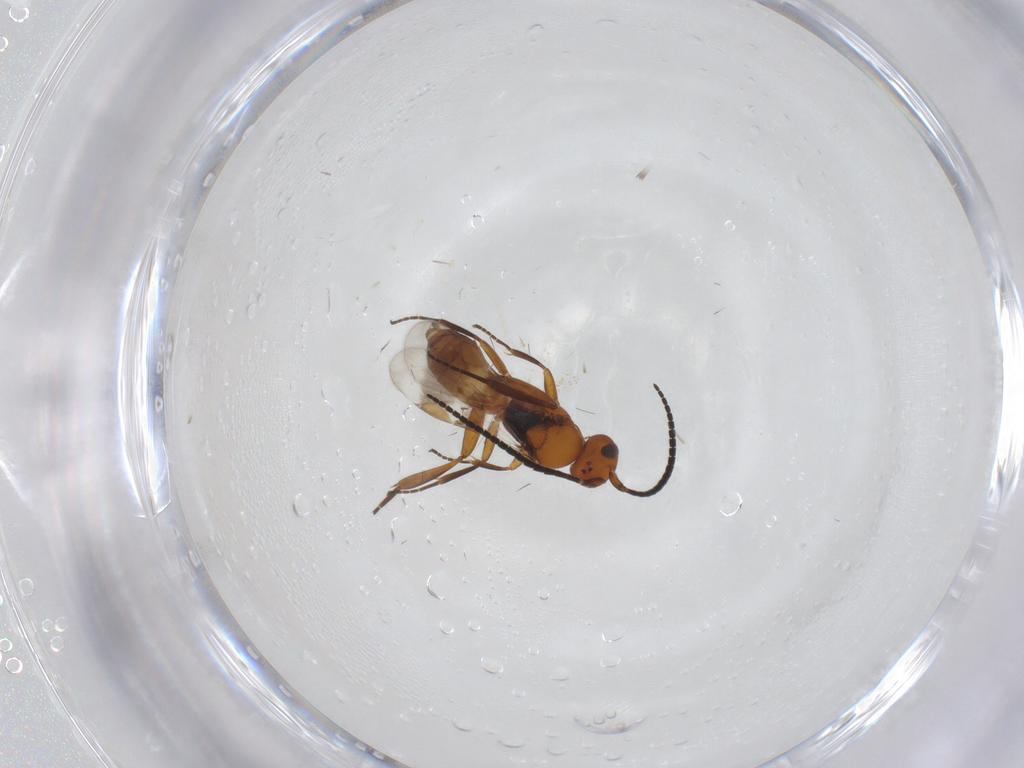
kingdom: Animalia
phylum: Arthropoda
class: Insecta
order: Hymenoptera
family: Braconidae
